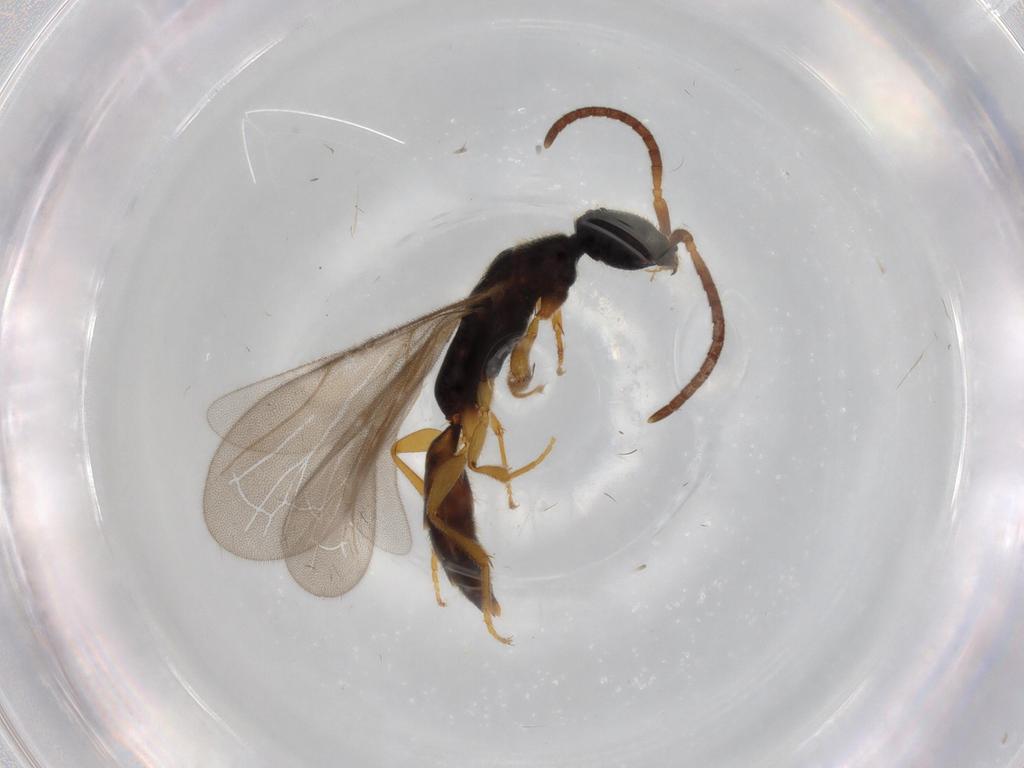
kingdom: Animalia
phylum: Arthropoda
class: Insecta
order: Hymenoptera
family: Bethylidae
